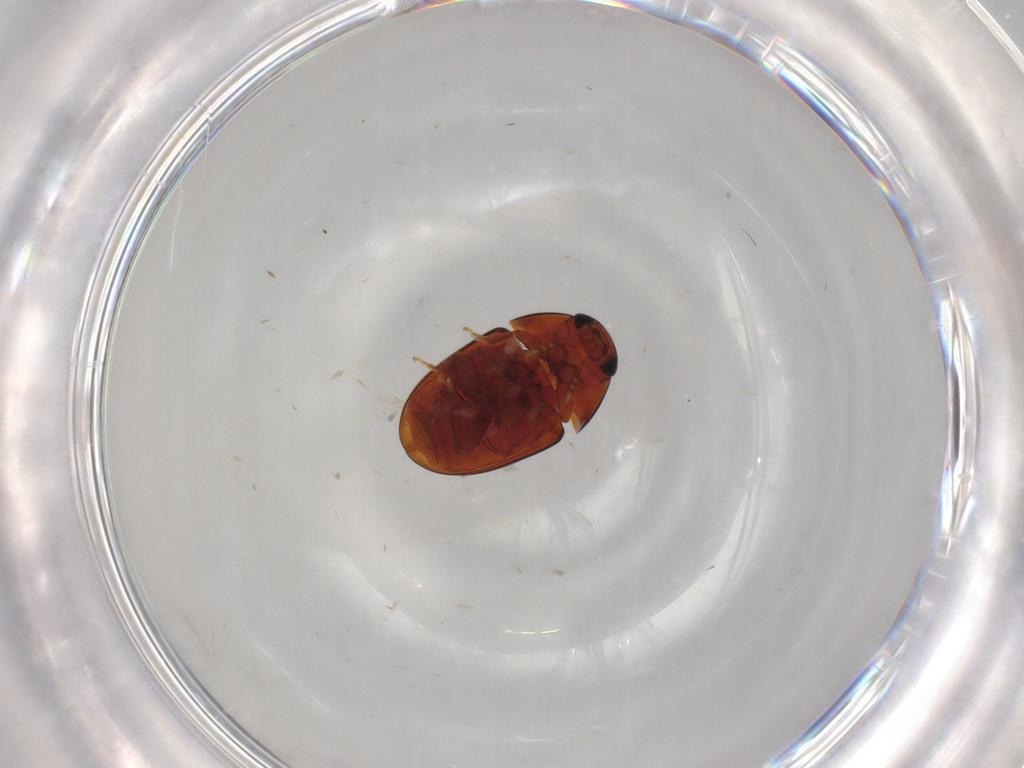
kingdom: Animalia
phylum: Arthropoda
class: Insecta
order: Coleoptera
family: Phalacridae
